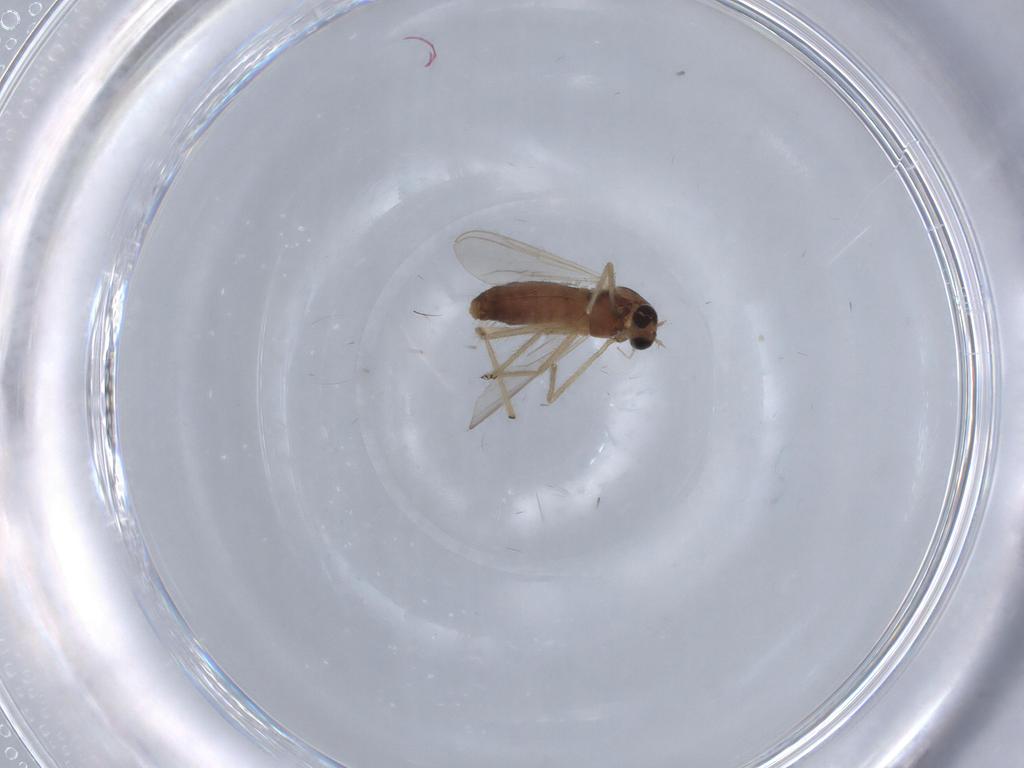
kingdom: Animalia
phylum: Arthropoda
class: Insecta
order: Diptera
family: Chironomidae
